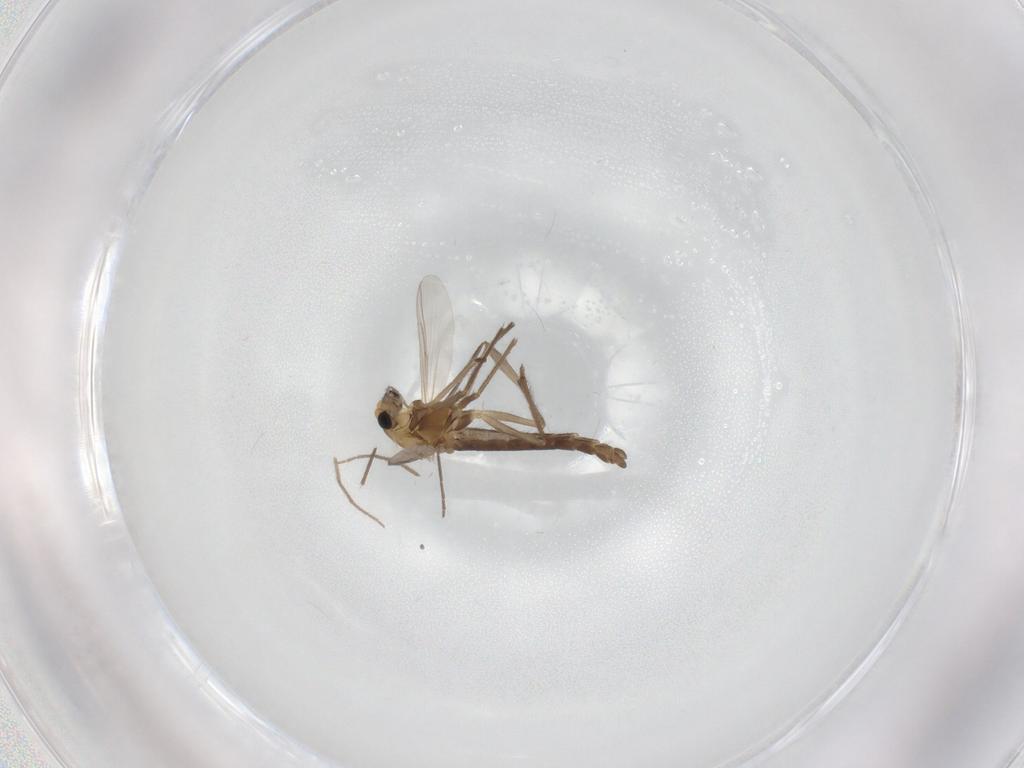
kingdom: Animalia
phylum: Arthropoda
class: Insecta
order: Diptera
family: Chironomidae
